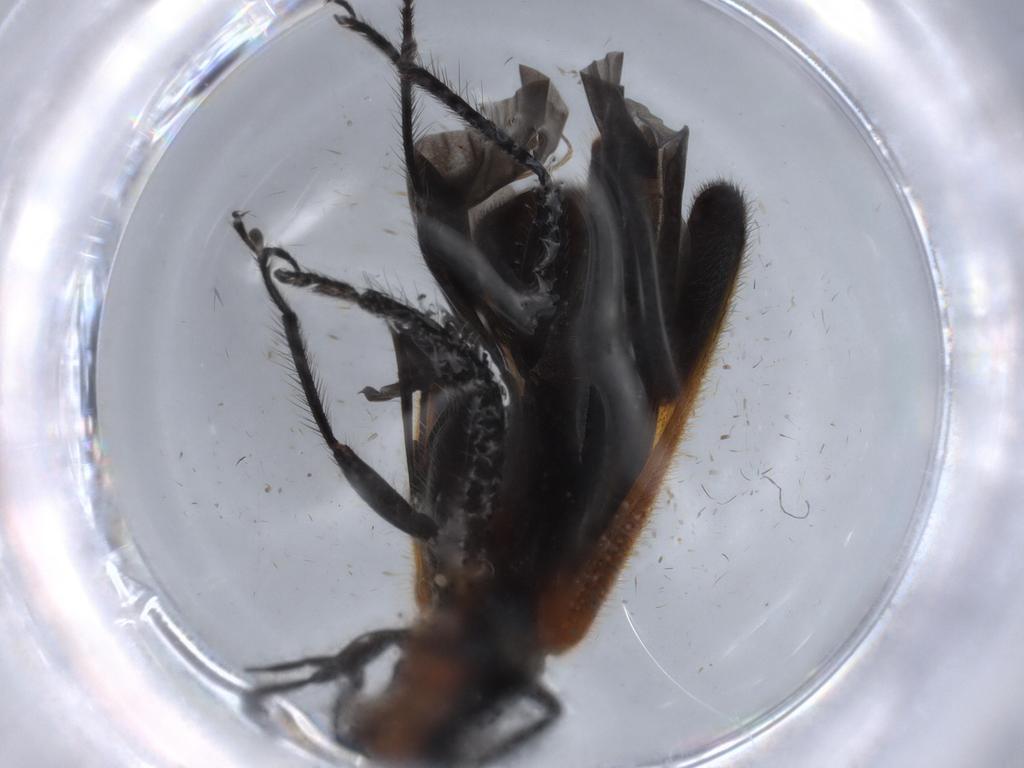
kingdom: Animalia
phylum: Arthropoda
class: Insecta
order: Coleoptera
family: Cleridae
